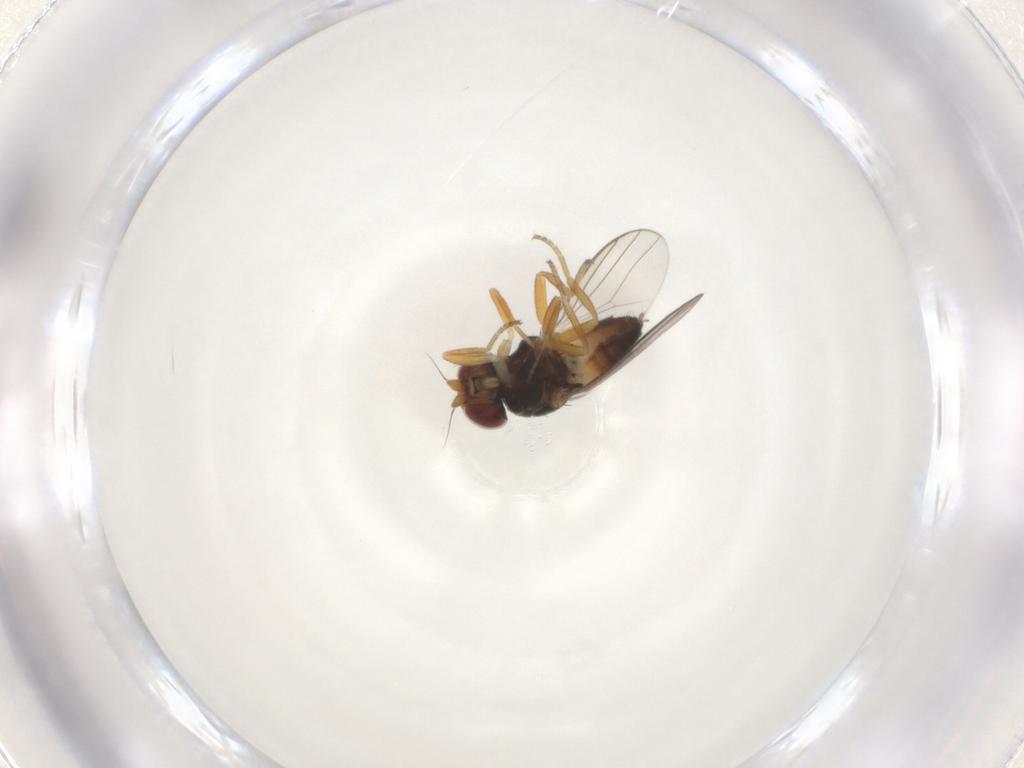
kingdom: Animalia
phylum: Arthropoda
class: Insecta
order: Diptera
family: Chloropidae
